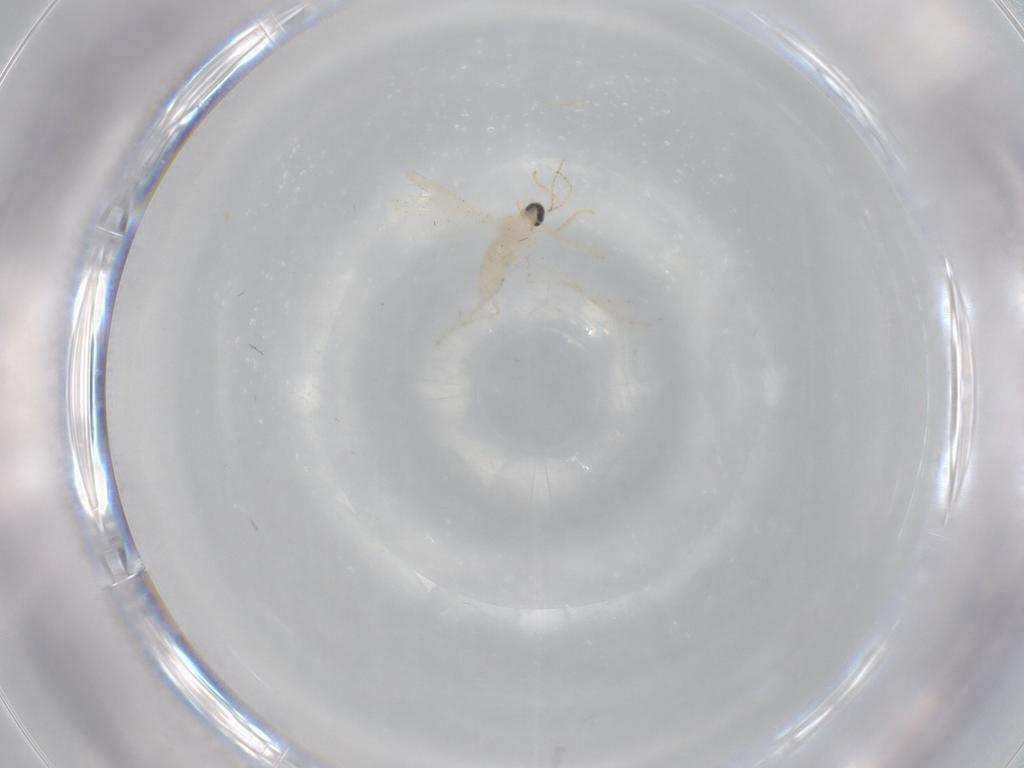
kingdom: Animalia
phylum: Arthropoda
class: Insecta
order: Diptera
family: Cecidomyiidae
